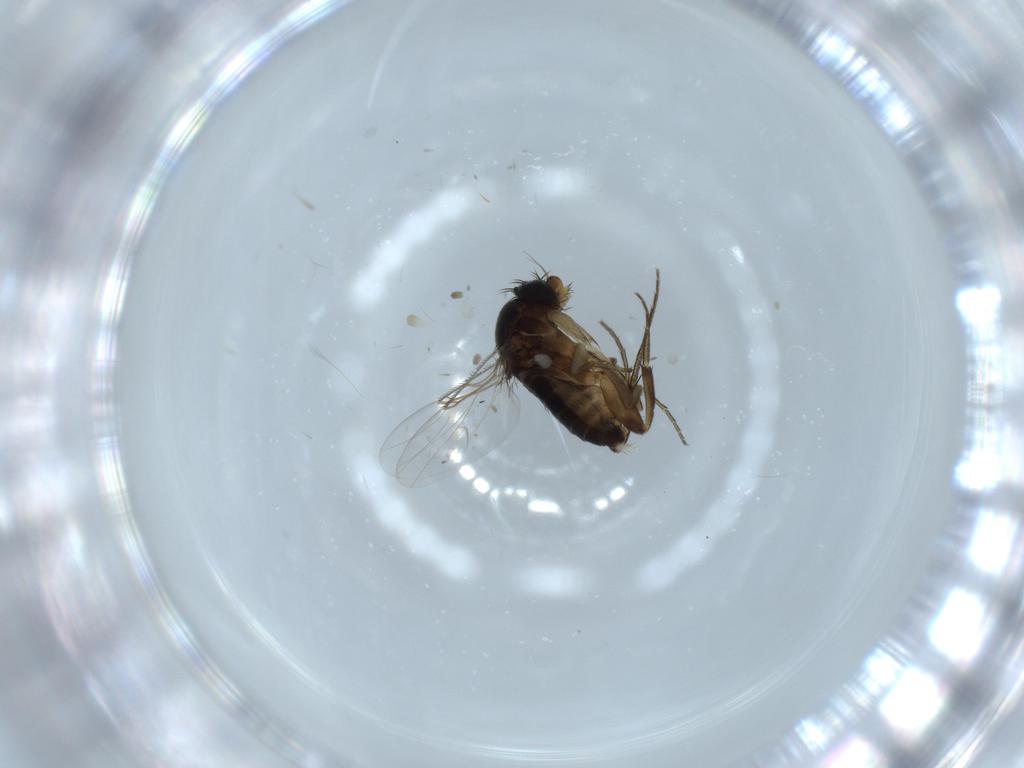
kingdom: Animalia
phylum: Arthropoda
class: Insecta
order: Diptera
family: Phoridae
